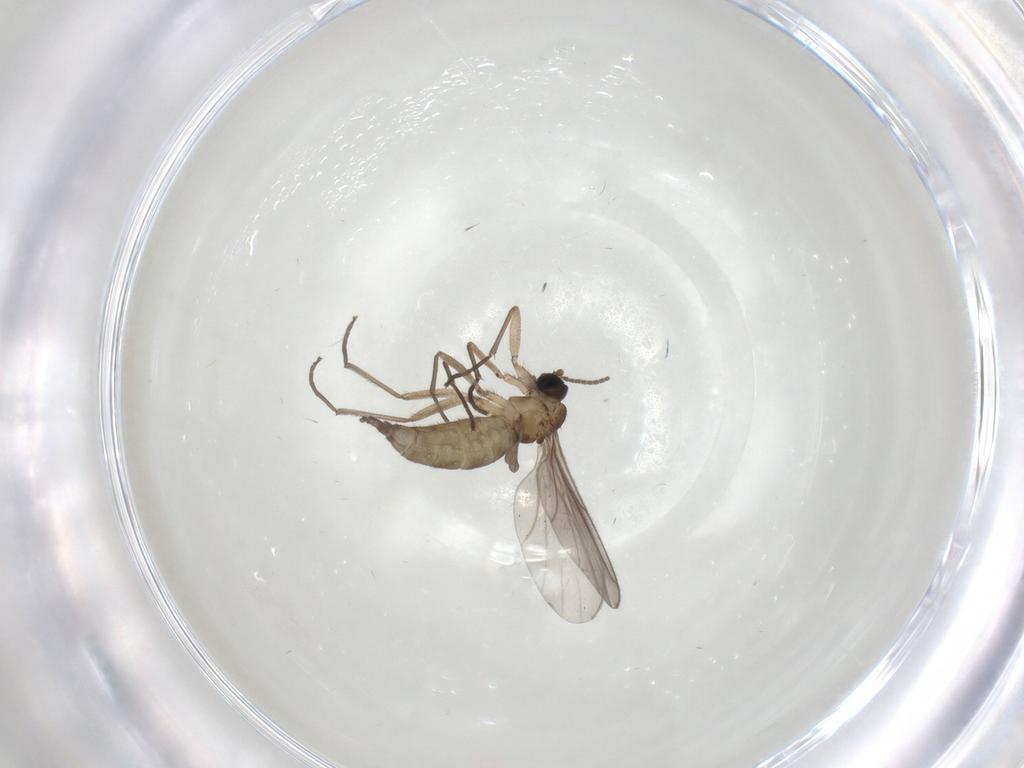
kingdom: Animalia
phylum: Arthropoda
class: Insecta
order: Diptera
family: Sciaridae
